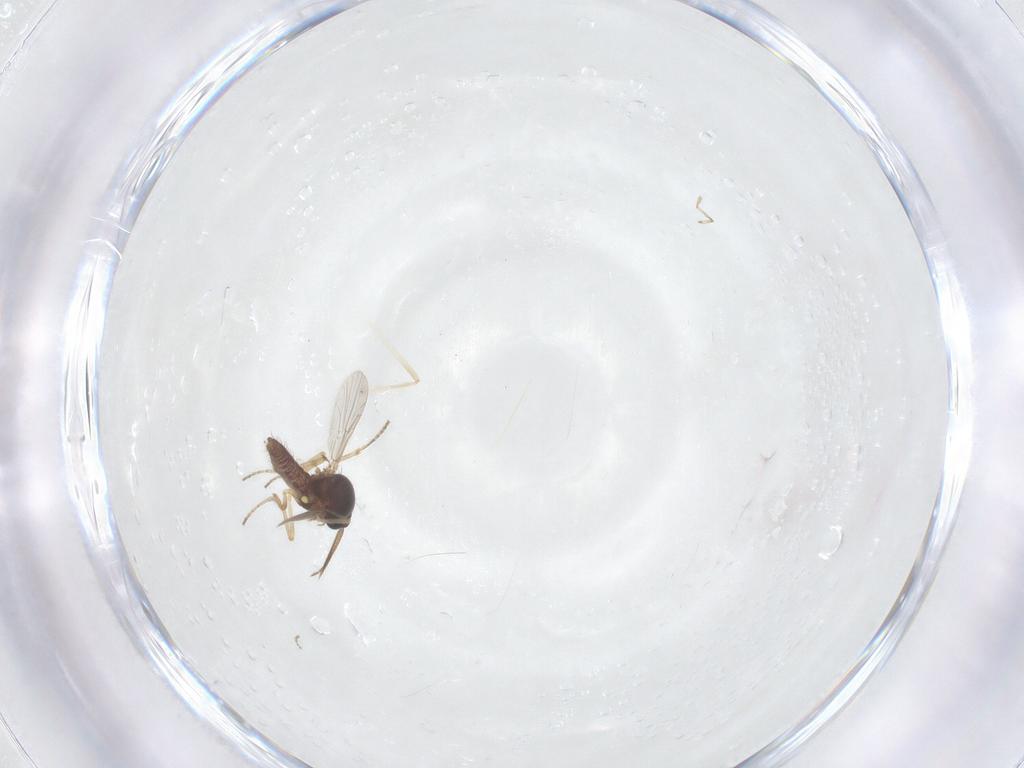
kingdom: Animalia
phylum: Arthropoda
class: Insecta
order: Diptera
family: Ceratopogonidae
